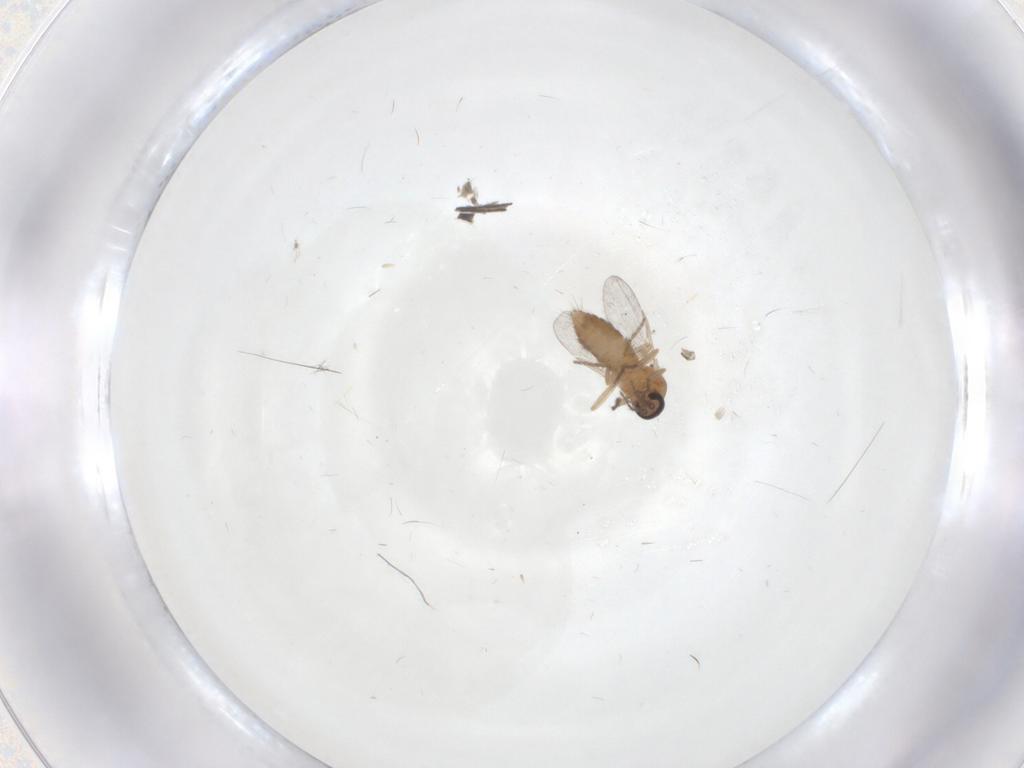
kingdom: Animalia
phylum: Arthropoda
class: Insecta
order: Diptera
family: Ceratopogonidae
